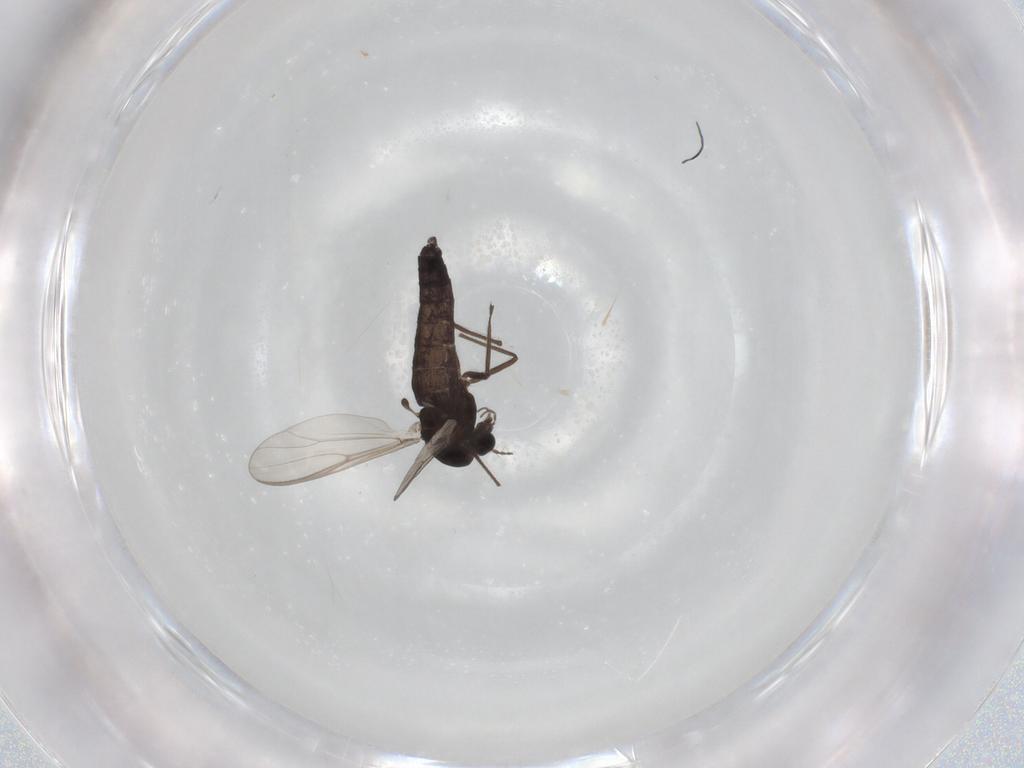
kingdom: Animalia
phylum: Arthropoda
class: Insecta
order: Diptera
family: Chironomidae
